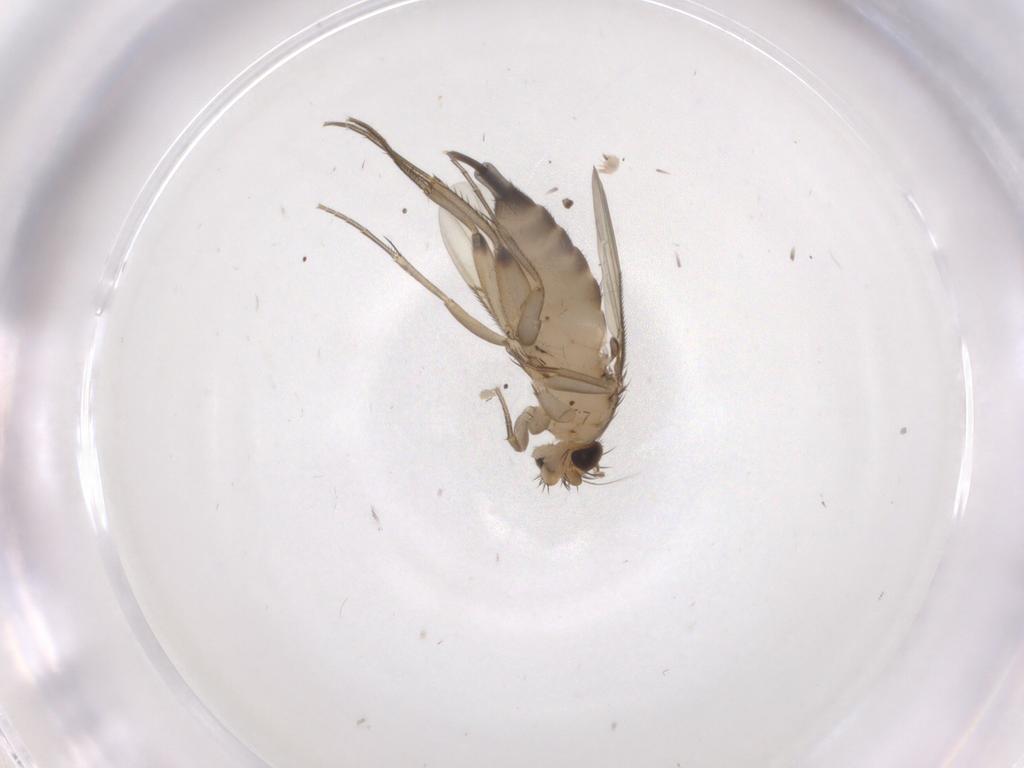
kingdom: Animalia
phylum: Arthropoda
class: Insecta
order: Diptera
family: Phoridae
